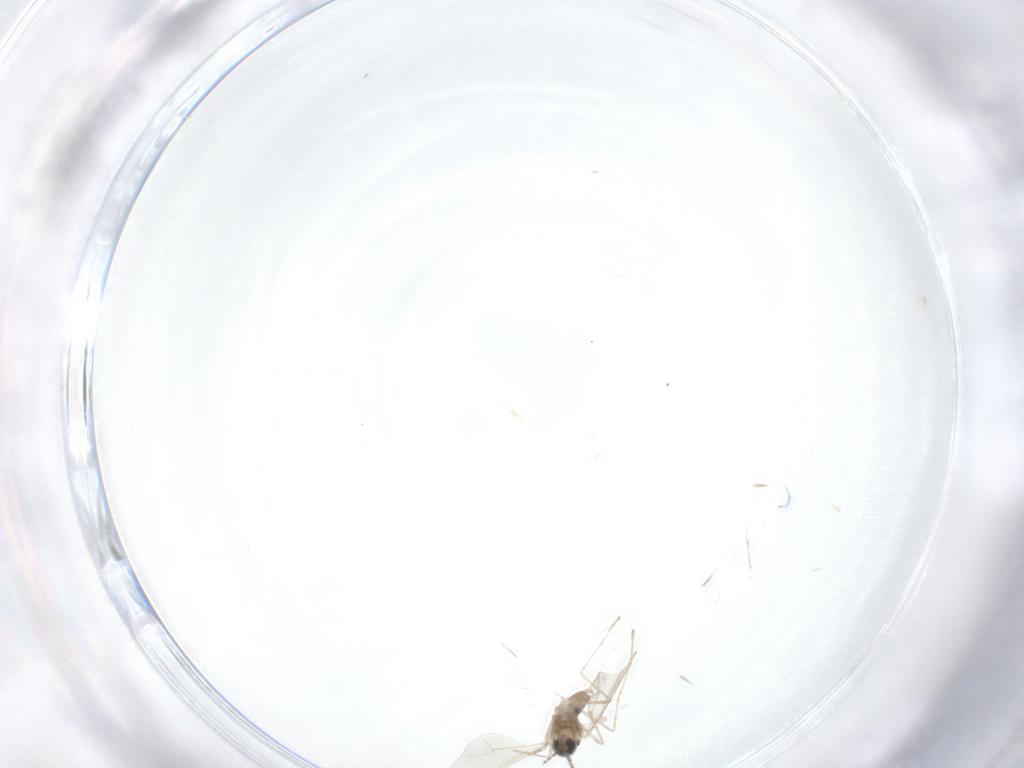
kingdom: Animalia
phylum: Arthropoda
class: Insecta
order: Diptera
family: Cecidomyiidae
